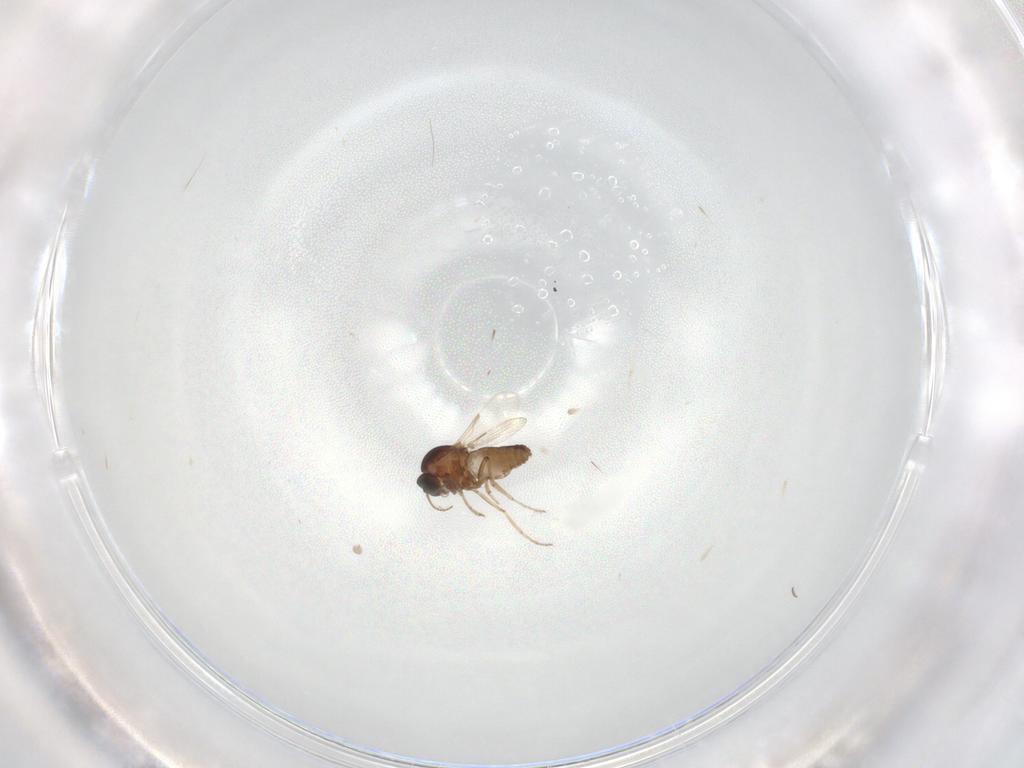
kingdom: Animalia
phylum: Arthropoda
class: Insecta
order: Diptera
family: Ceratopogonidae
